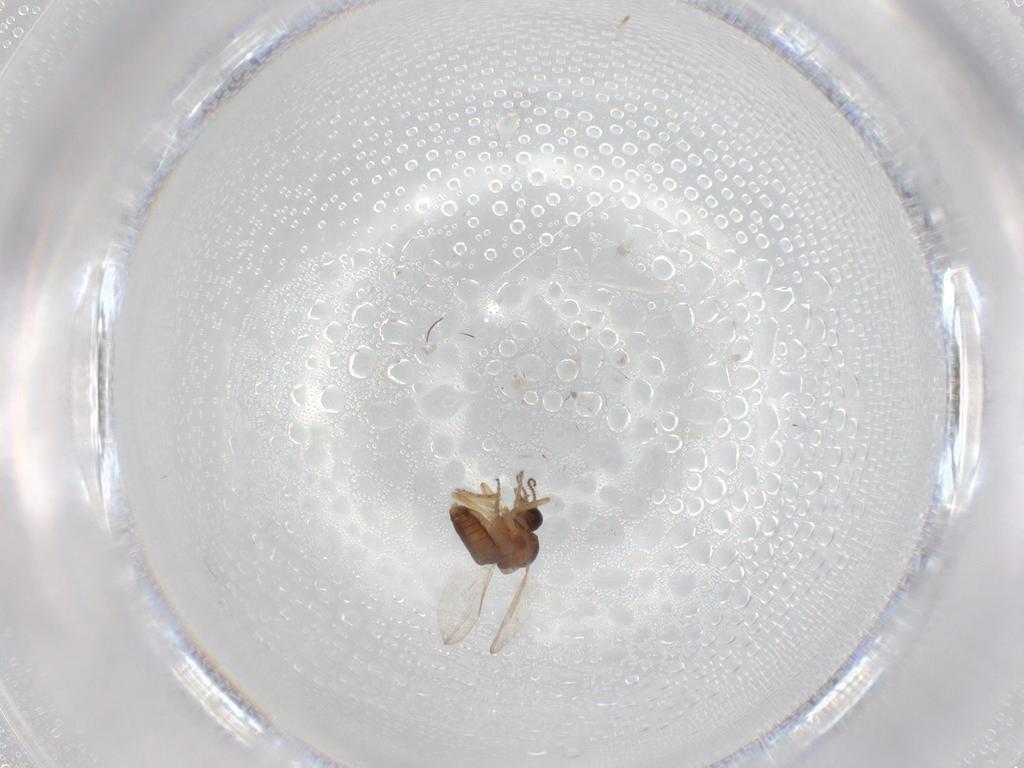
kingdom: Animalia
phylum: Arthropoda
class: Insecta
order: Diptera
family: Ceratopogonidae
